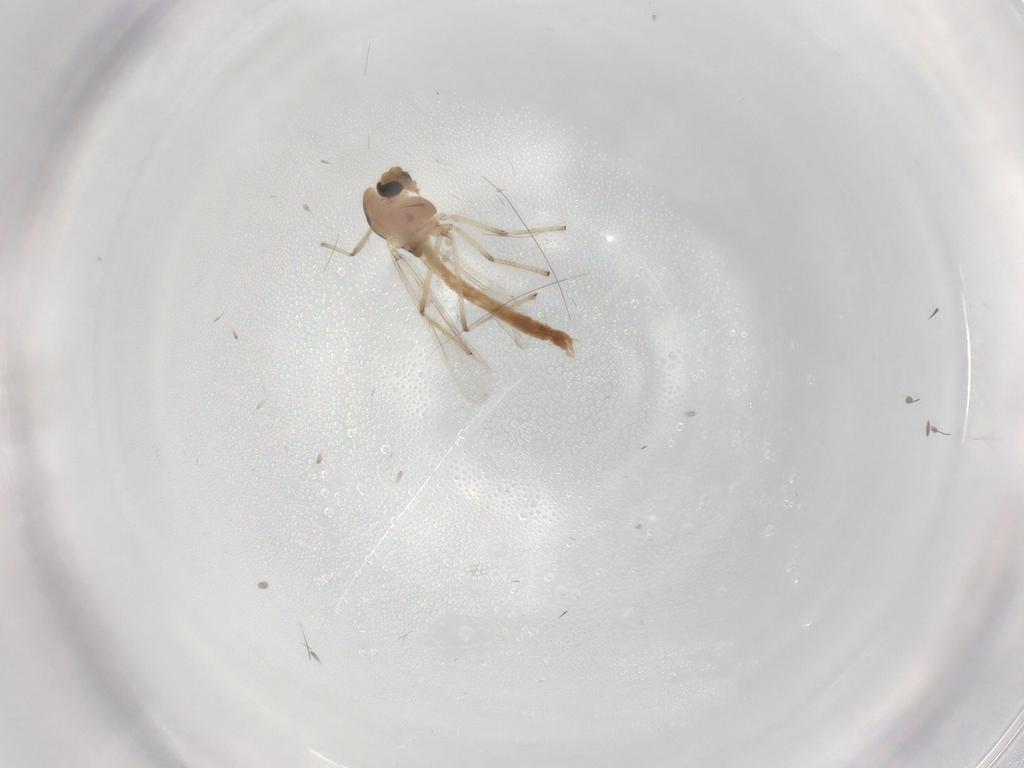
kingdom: Animalia
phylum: Arthropoda
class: Insecta
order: Diptera
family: Chironomidae
